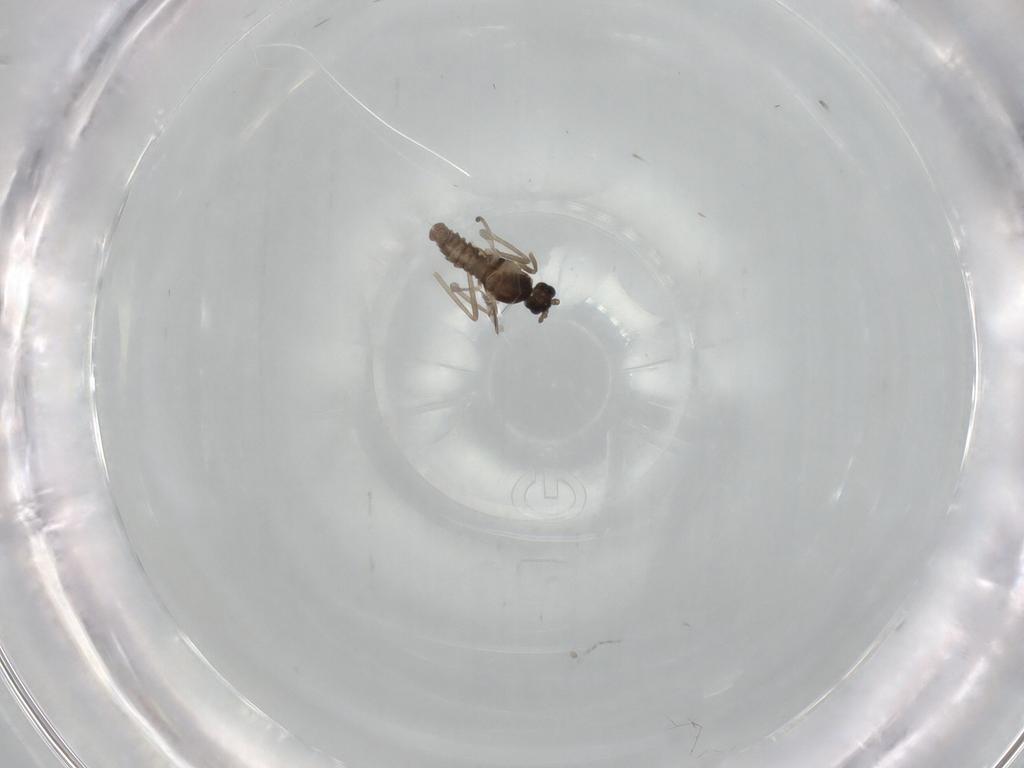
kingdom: Animalia
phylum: Arthropoda
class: Insecta
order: Diptera
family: Cecidomyiidae
